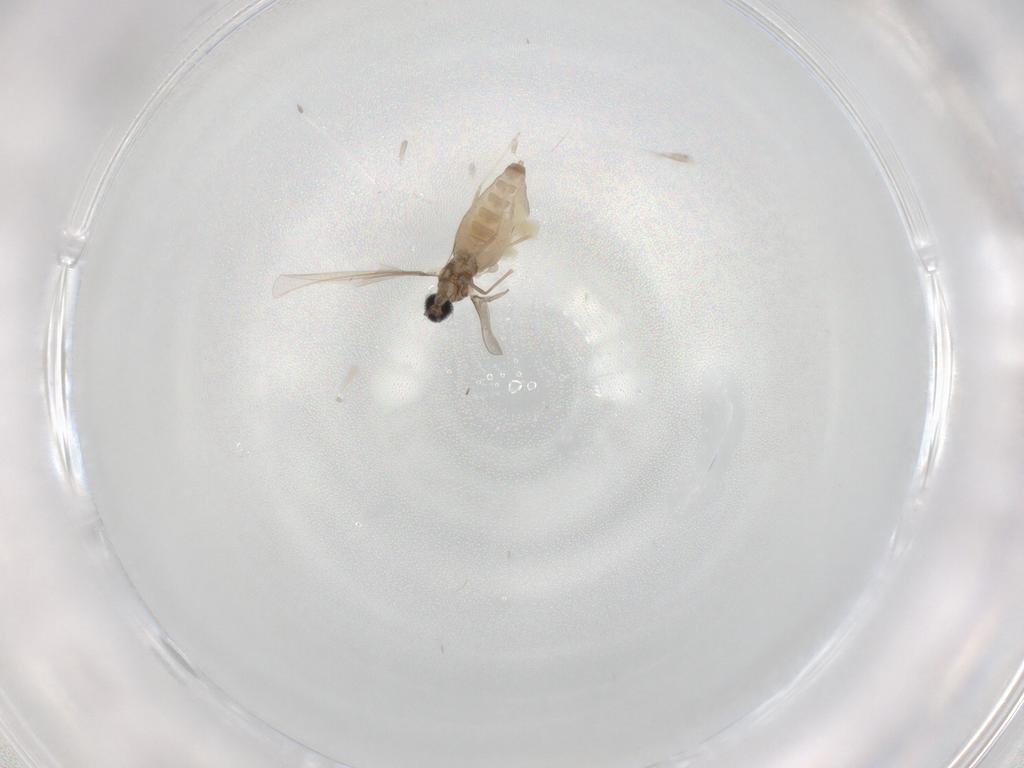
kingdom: Animalia
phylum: Arthropoda
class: Insecta
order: Diptera
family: Cecidomyiidae
